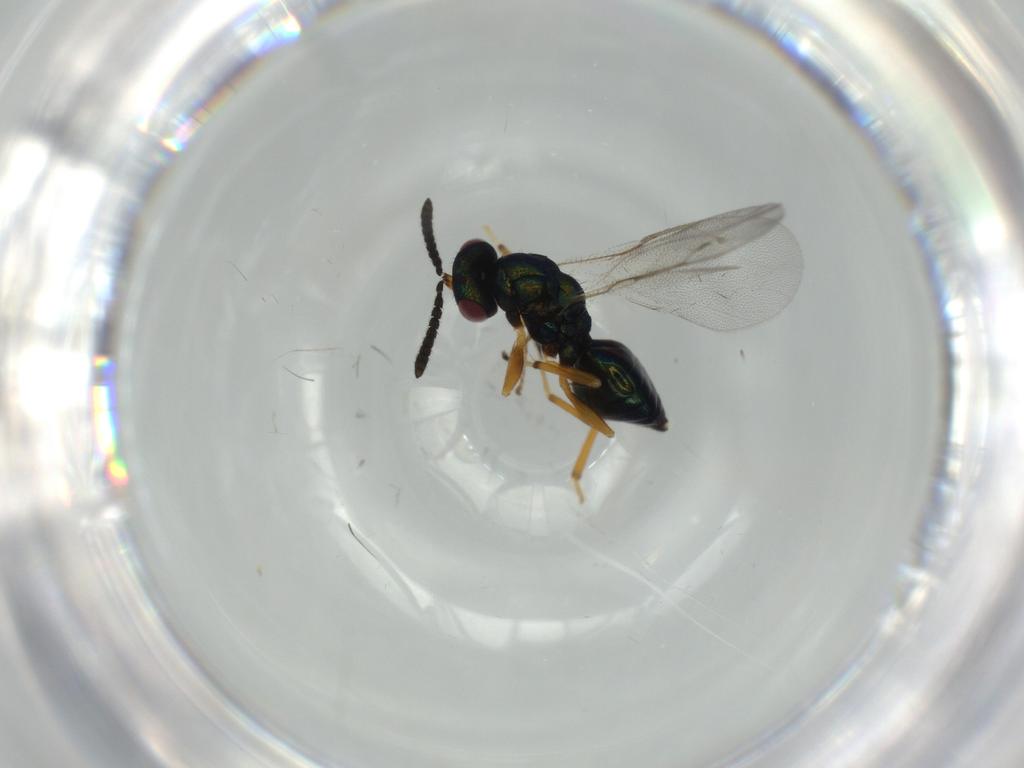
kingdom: Animalia
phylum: Arthropoda
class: Insecta
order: Hymenoptera
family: Pteromalidae
